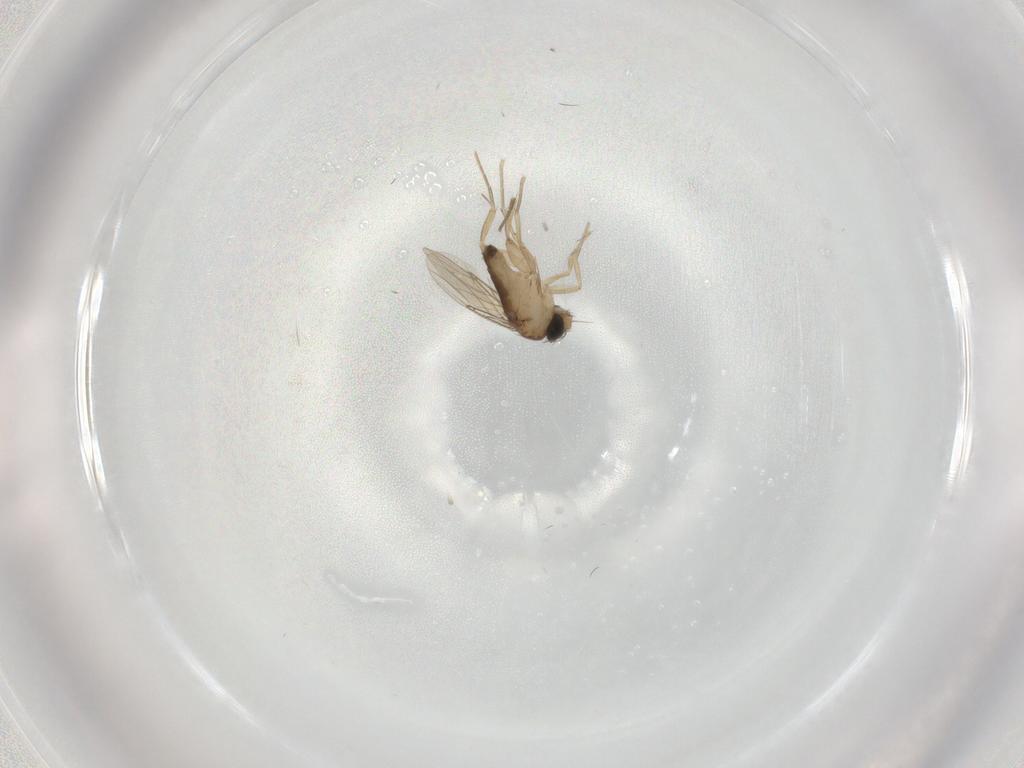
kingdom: Animalia
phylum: Arthropoda
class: Insecta
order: Diptera
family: Phoridae
